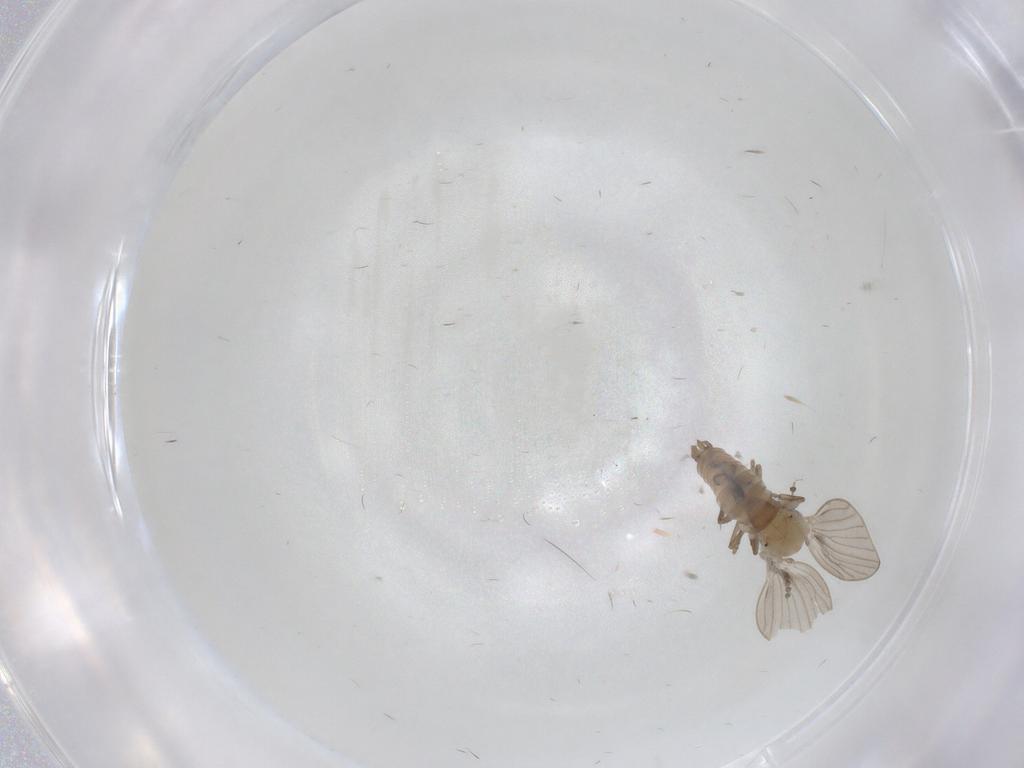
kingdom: Animalia
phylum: Arthropoda
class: Insecta
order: Diptera
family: Psychodidae
